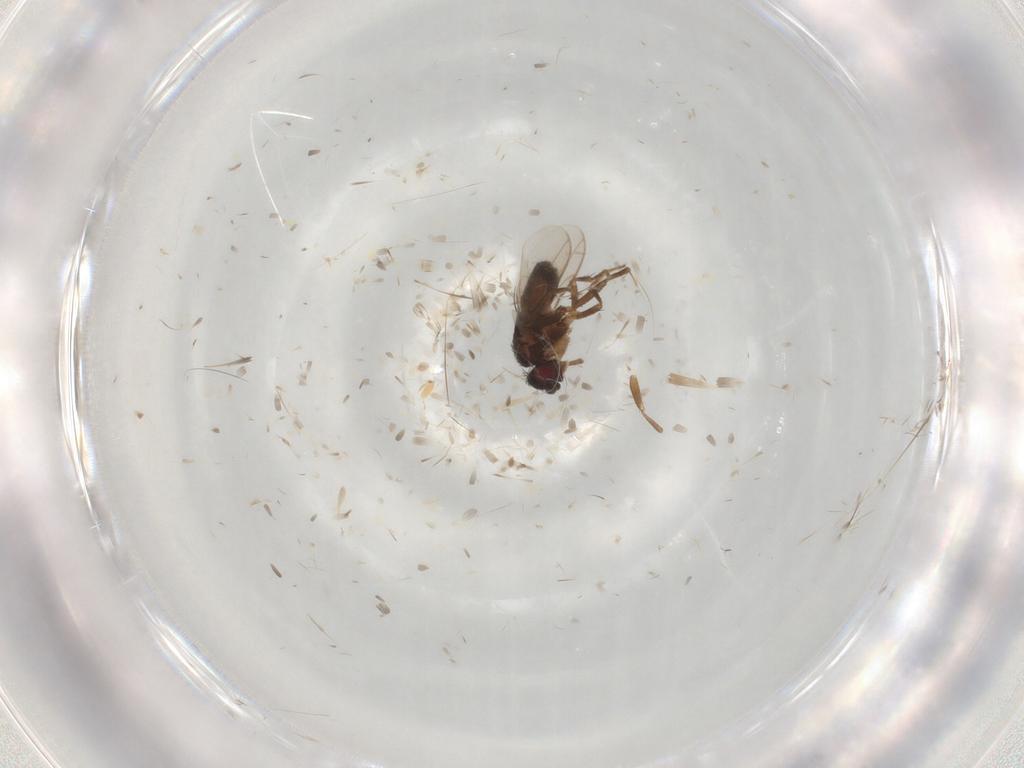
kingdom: Animalia
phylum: Arthropoda
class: Insecta
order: Diptera
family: Sphaeroceridae
